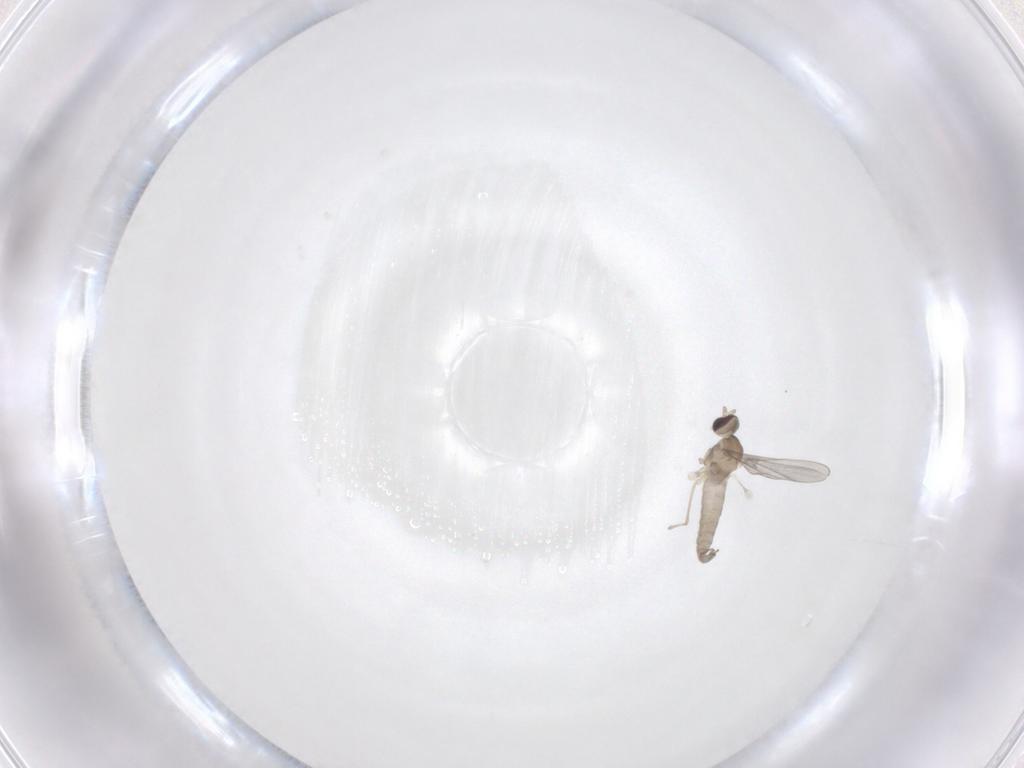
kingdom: Animalia
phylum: Arthropoda
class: Insecta
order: Diptera
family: Cecidomyiidae
